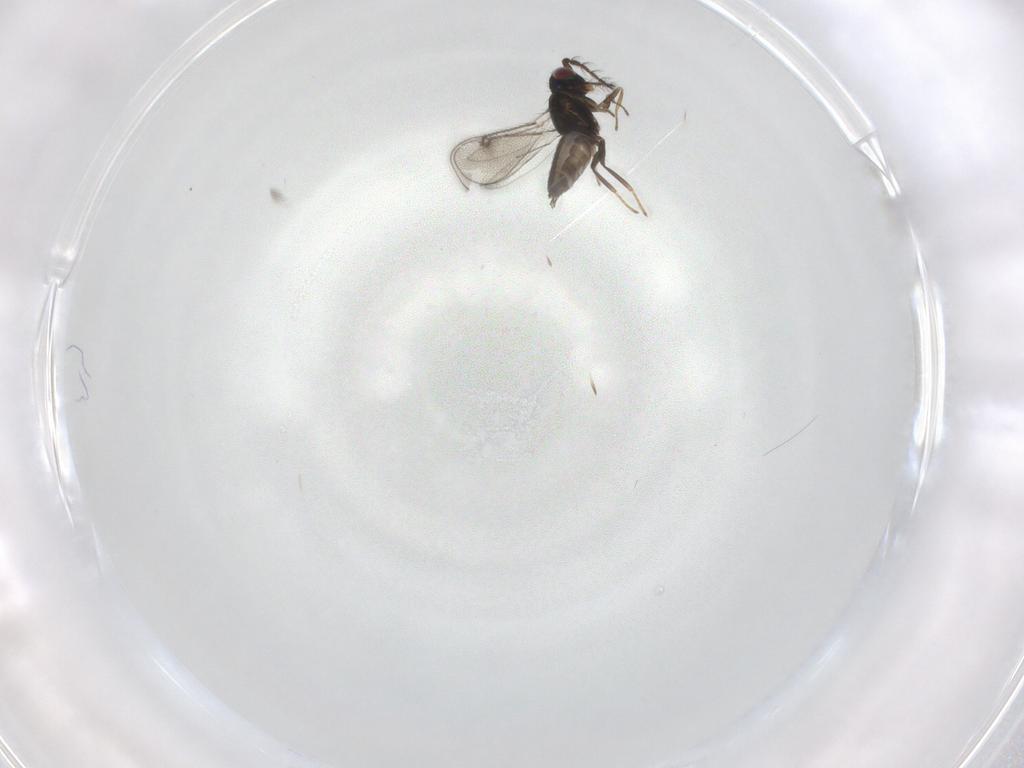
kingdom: Animalia
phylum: Arthropoda
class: Insecta
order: Hymenoptera
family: Eulophidae
